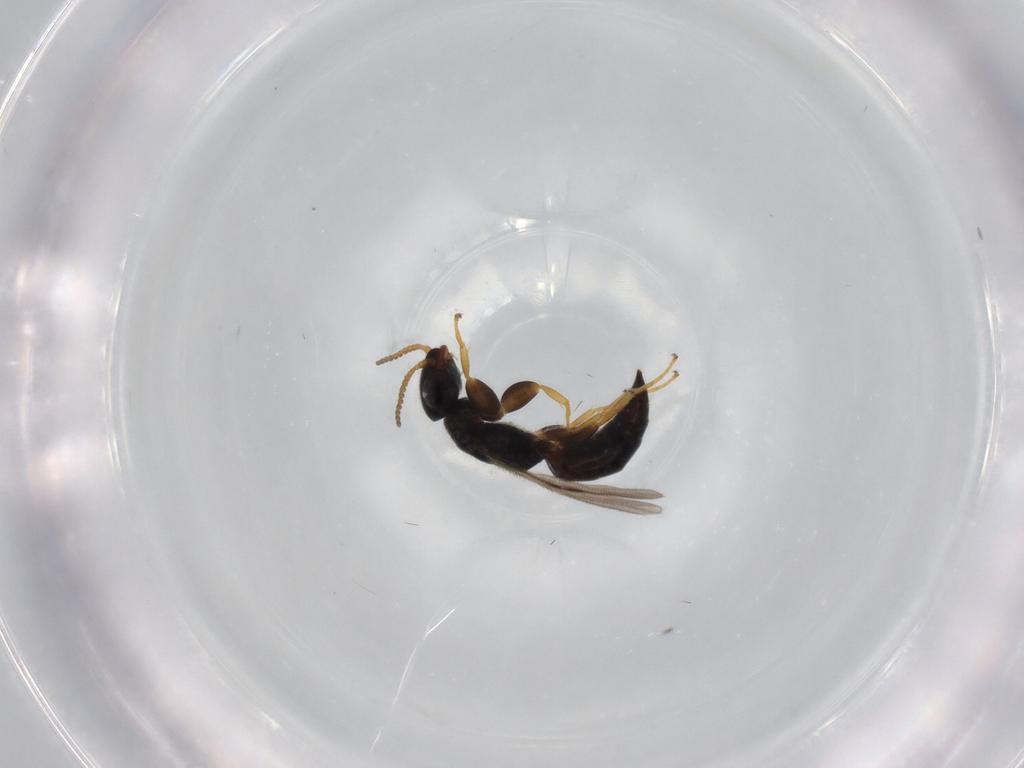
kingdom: Animalia
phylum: Arthropoda
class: Insecta
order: Hymenoptera
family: Bethylidae
